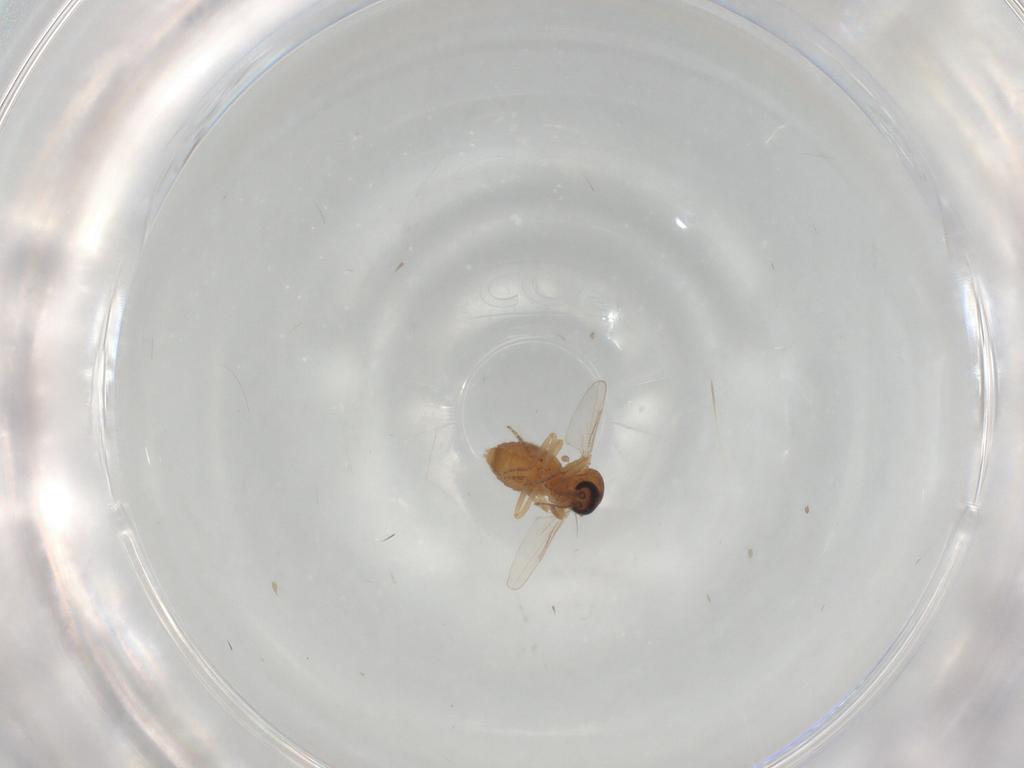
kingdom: Animalia
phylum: Arthropoda
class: Insecta
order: Diptera
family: Ceratopogonidae
